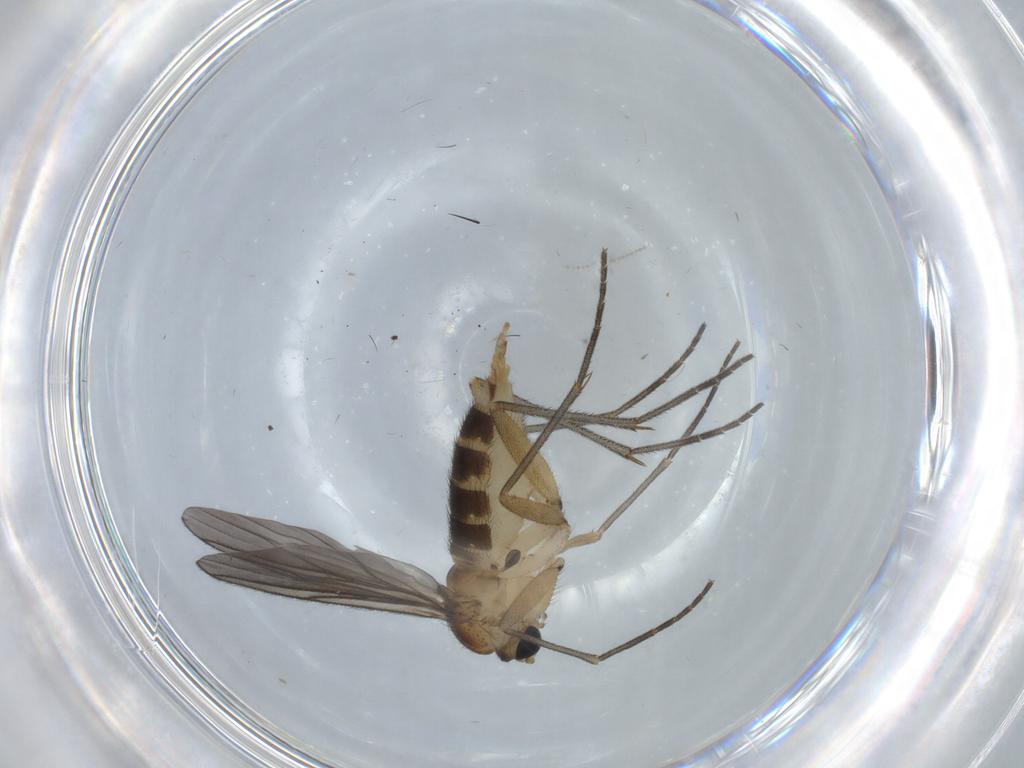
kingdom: Animalia
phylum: Arthropoda
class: Insecta
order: Diptera
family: Sciaridae
